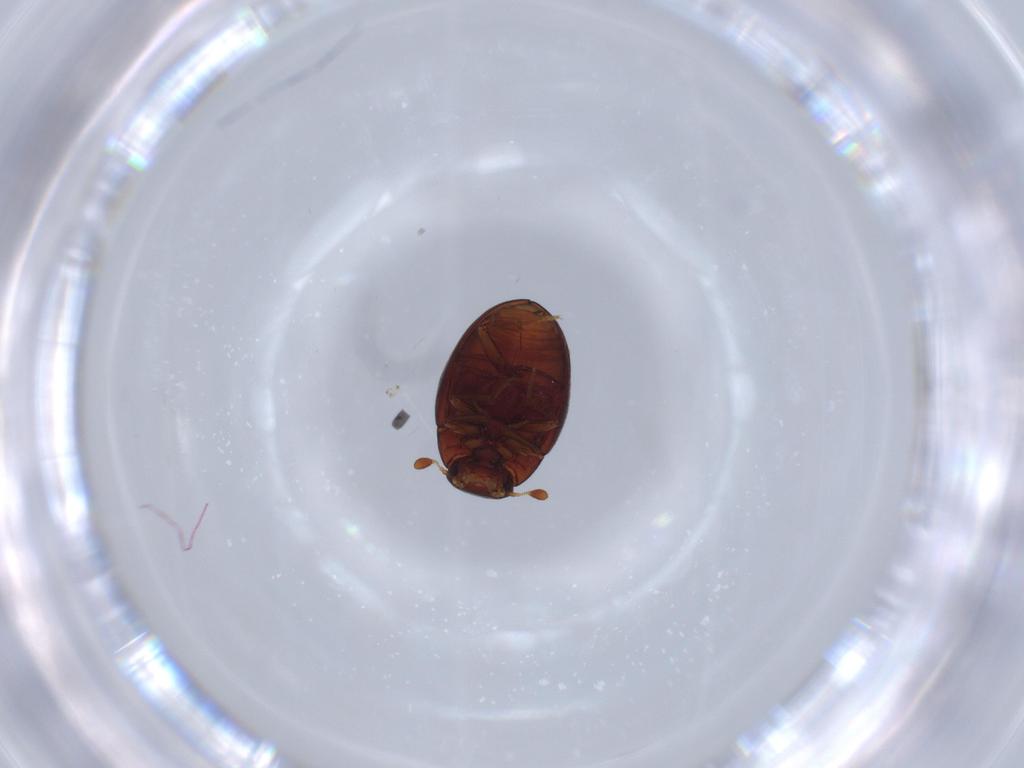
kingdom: Animalia
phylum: Arthropoda
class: Insecta
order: Coleoptera
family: Hydrophilidae
